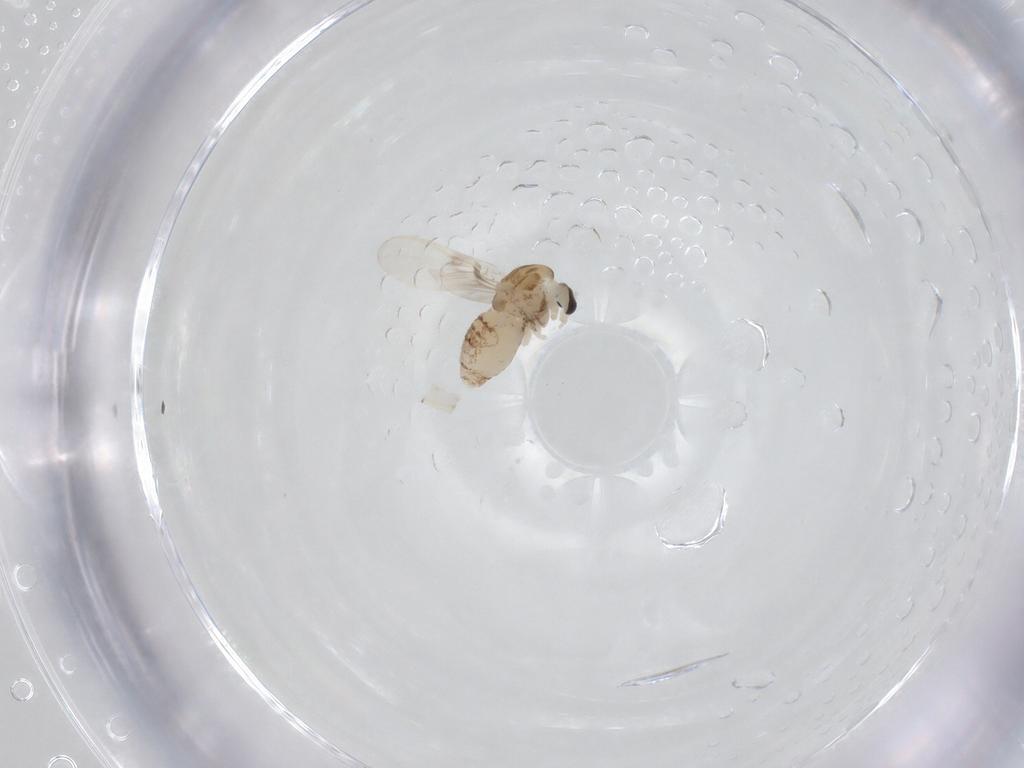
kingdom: Animalia
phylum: Arthropoda
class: Insecta
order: Diptera
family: Chironomidae
